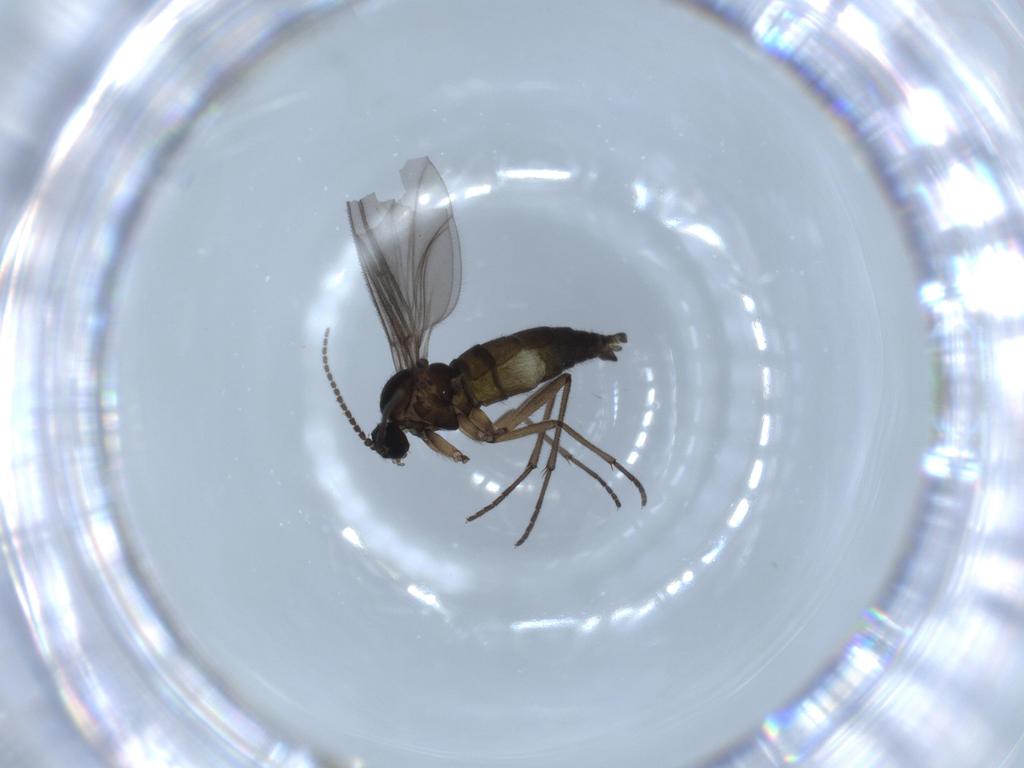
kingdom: Animalia
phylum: Arthropoda
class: Insecta
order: Diptera
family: Sciaridae
